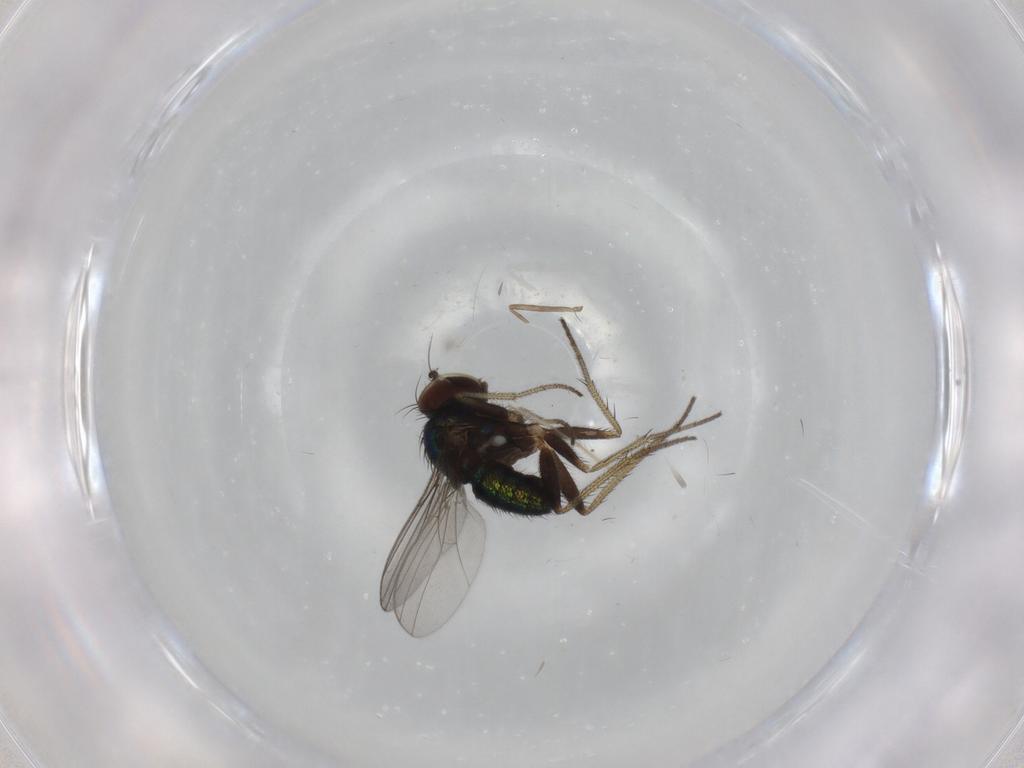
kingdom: Animalia
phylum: Arthropoda
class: Insecta
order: Diptera
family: Dolichopodidae
